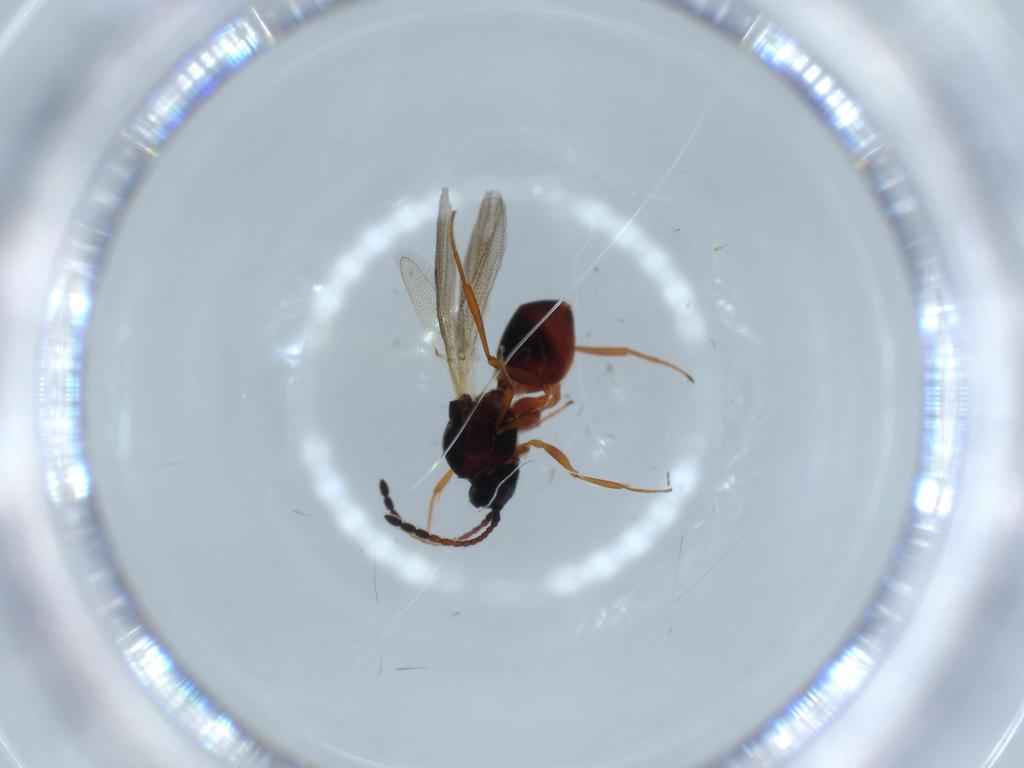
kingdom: Animalia
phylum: Arthropoda
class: Insecta
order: Hymenoptera
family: Figitidae
